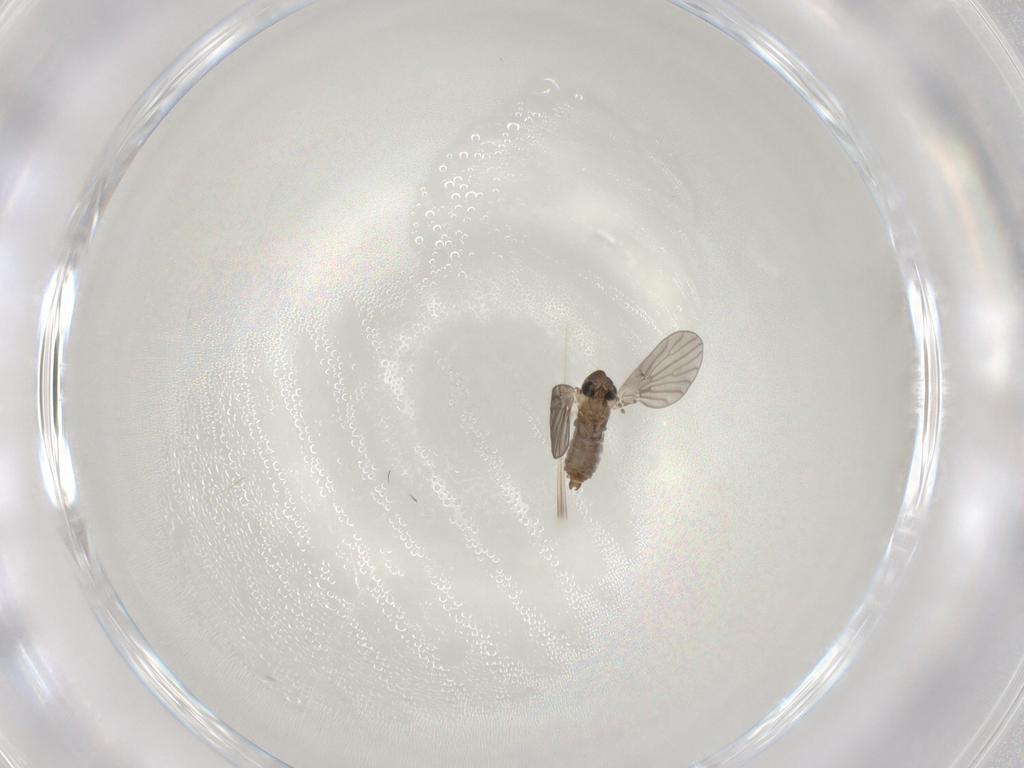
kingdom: Animalia
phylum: Arthropoda
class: Insecta
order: Diptera
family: Psychodidae
